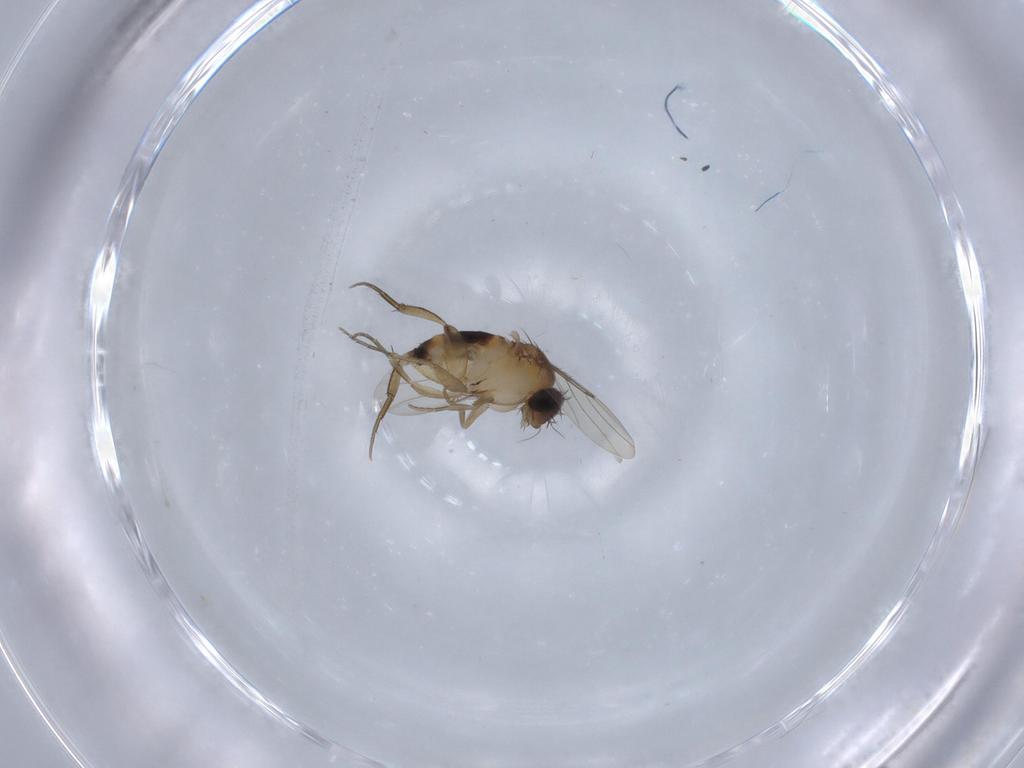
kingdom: Animalia
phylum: Arthropoda
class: Insecta
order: Diptera
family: Phoridae
